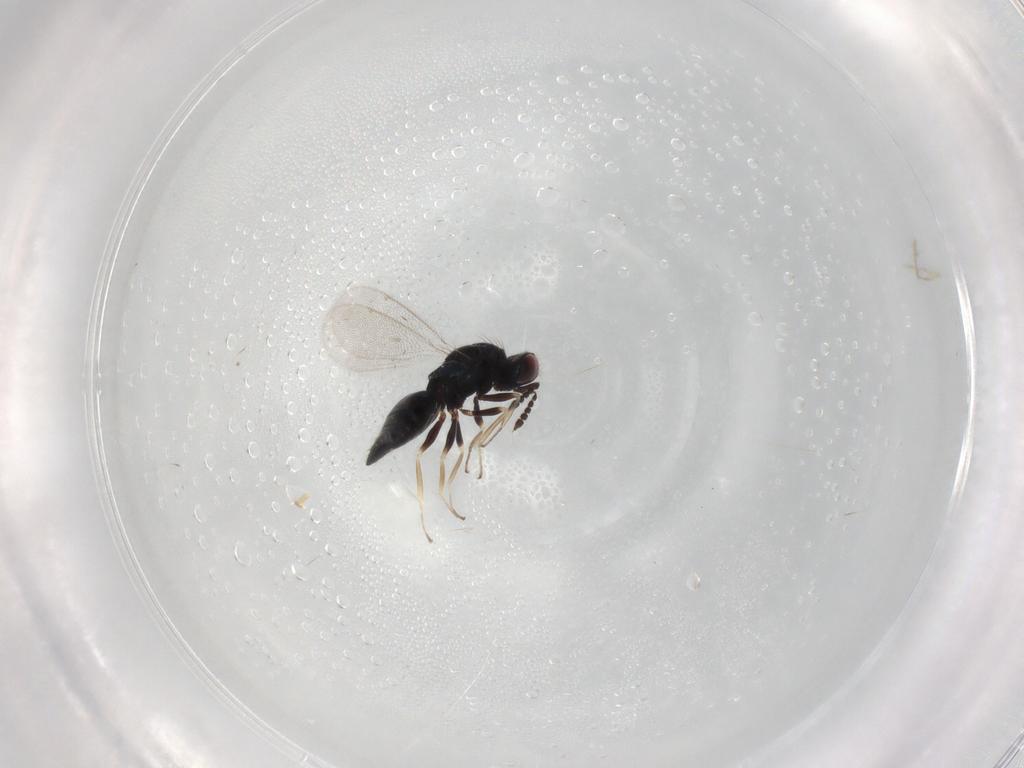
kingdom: Animalia
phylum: Arthropoda
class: Insecta
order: Hymenoptera
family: Eulophidae
